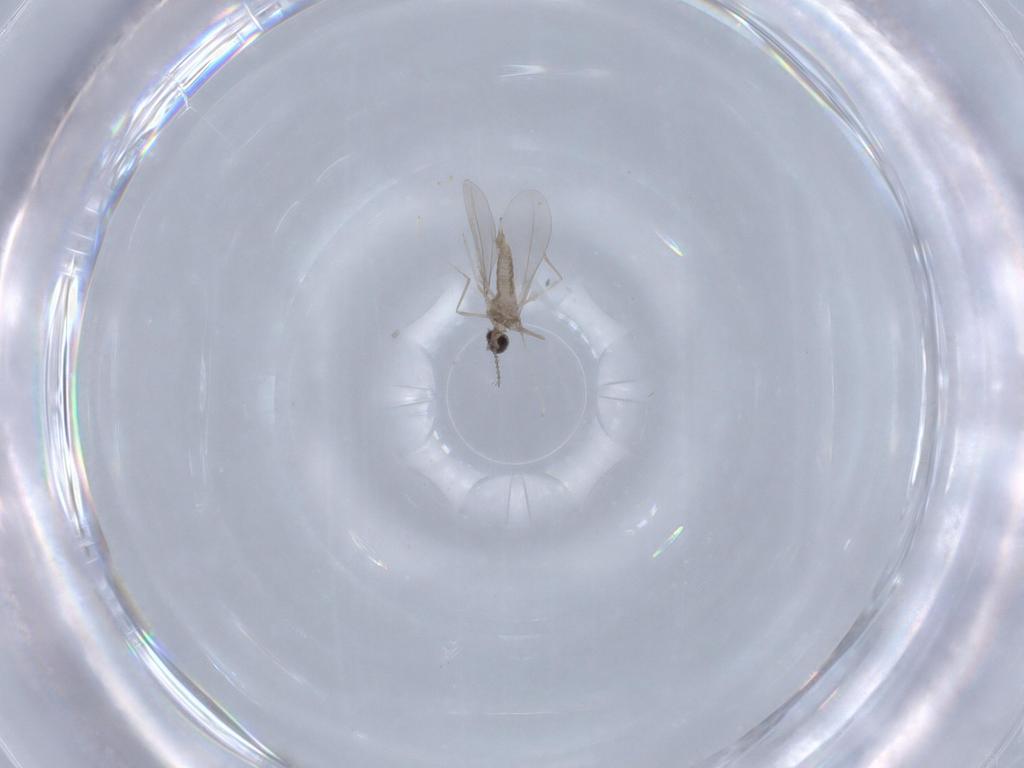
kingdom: Animalia
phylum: Arthropoda
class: Insecta
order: Diptera
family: Cecidomyiidae
